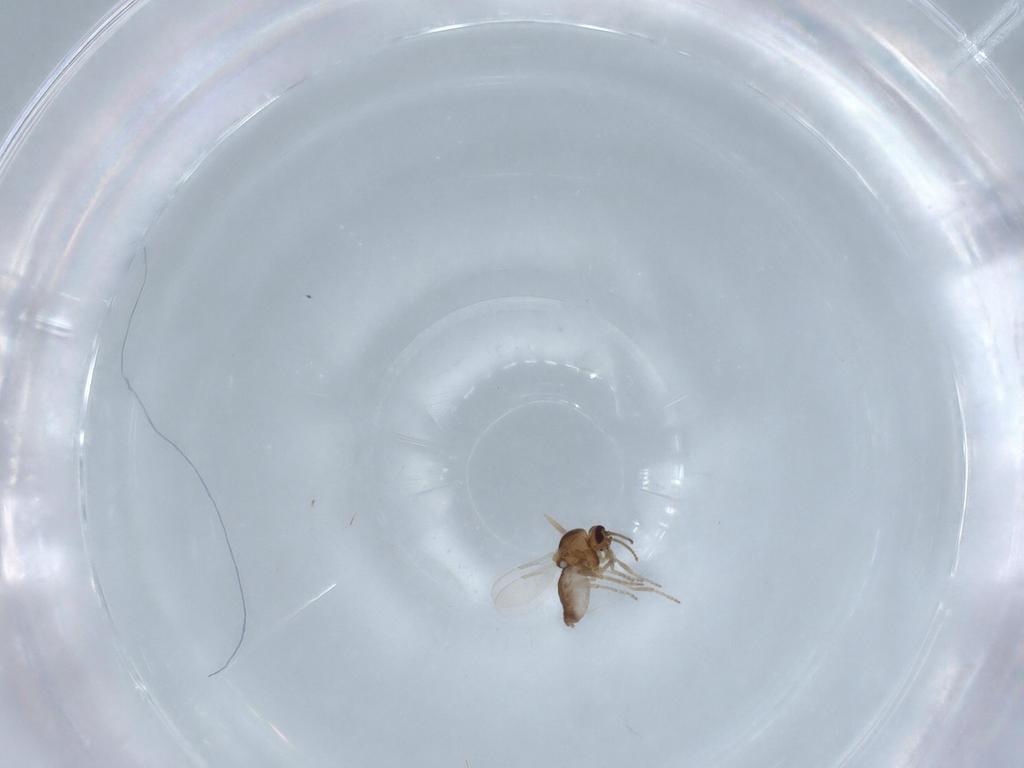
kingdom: Animalia
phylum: Arthropoda
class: Insecta
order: Diptera
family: Ceratopogonidae
